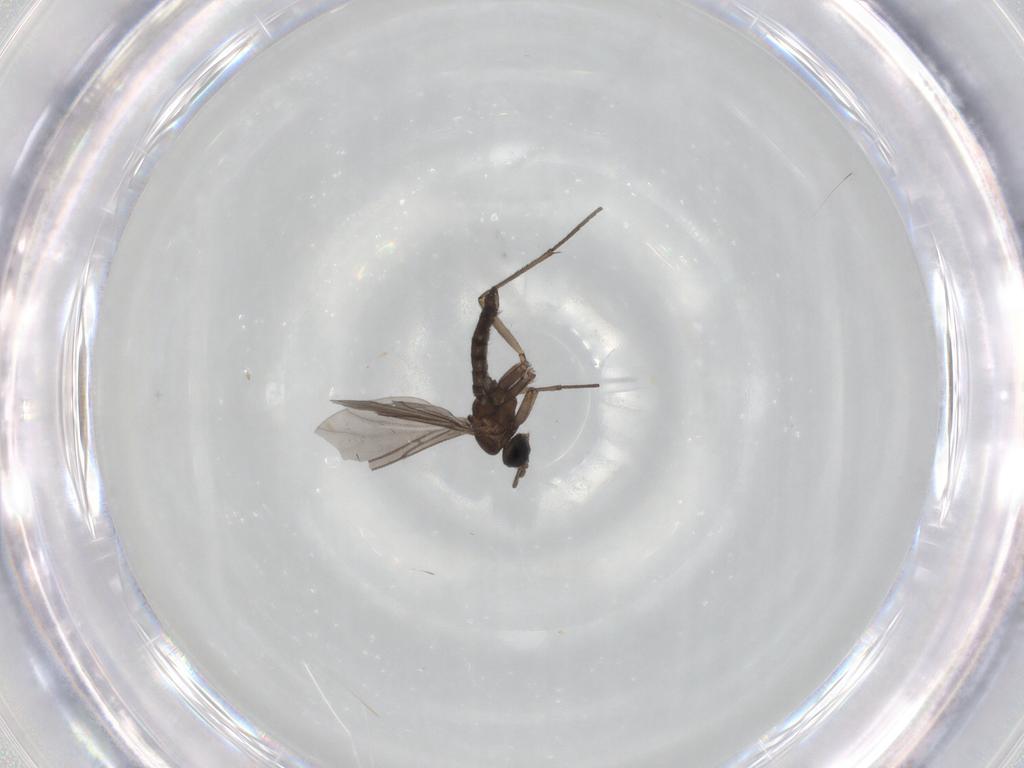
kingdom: Animalia
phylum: Arthropoda
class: Insecta
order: Diptera
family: Sciaridae
